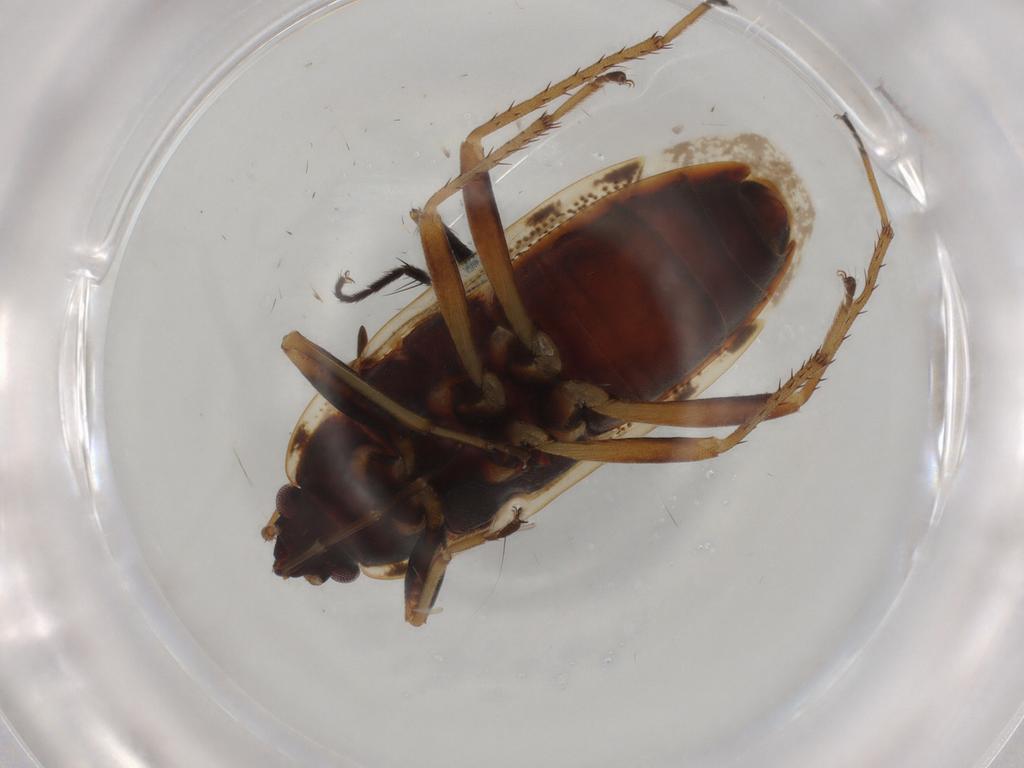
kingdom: Animalia
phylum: Arthropoda
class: Insecta
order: Hemiptera
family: Rhyparochromidae
